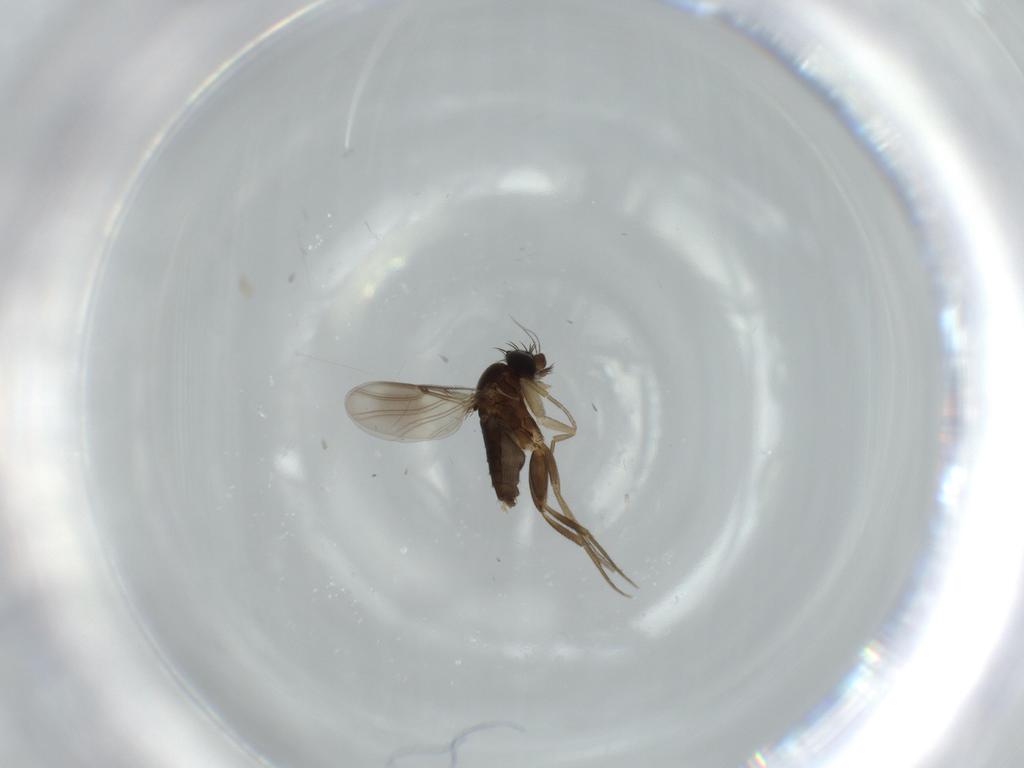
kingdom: Animalia
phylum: Arthropoda
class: Insecta
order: Diptera
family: Phoridae
